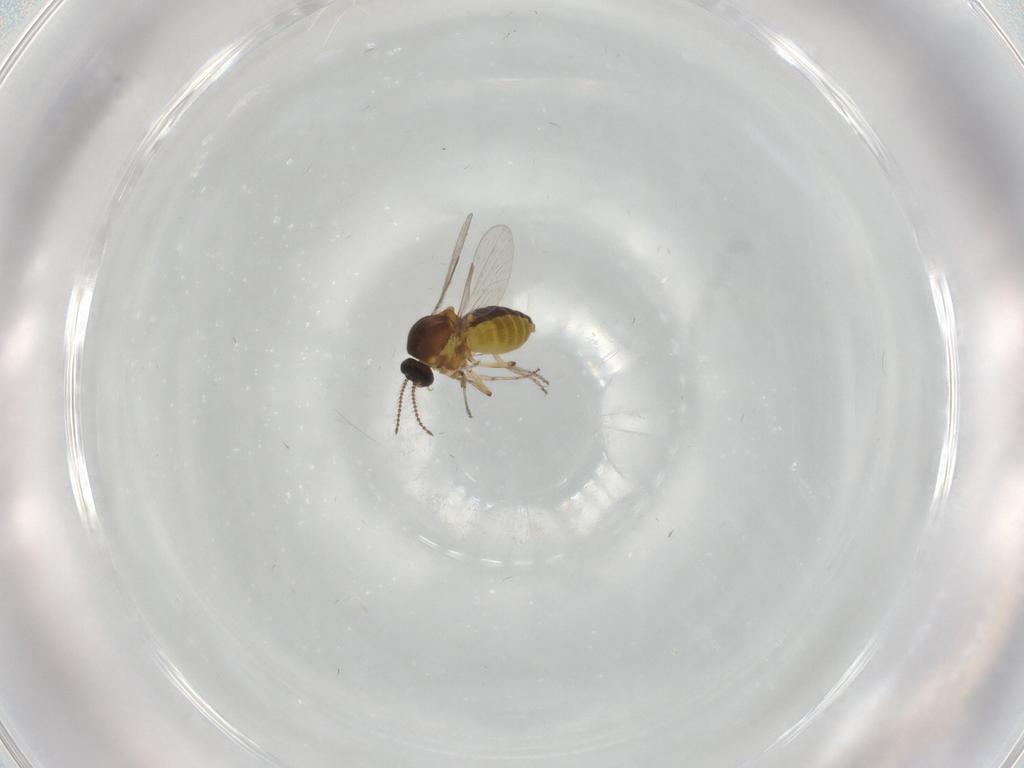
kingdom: Animalia
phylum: Arthropoda
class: Insecta
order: Diptera
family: Ceratopogonidae
